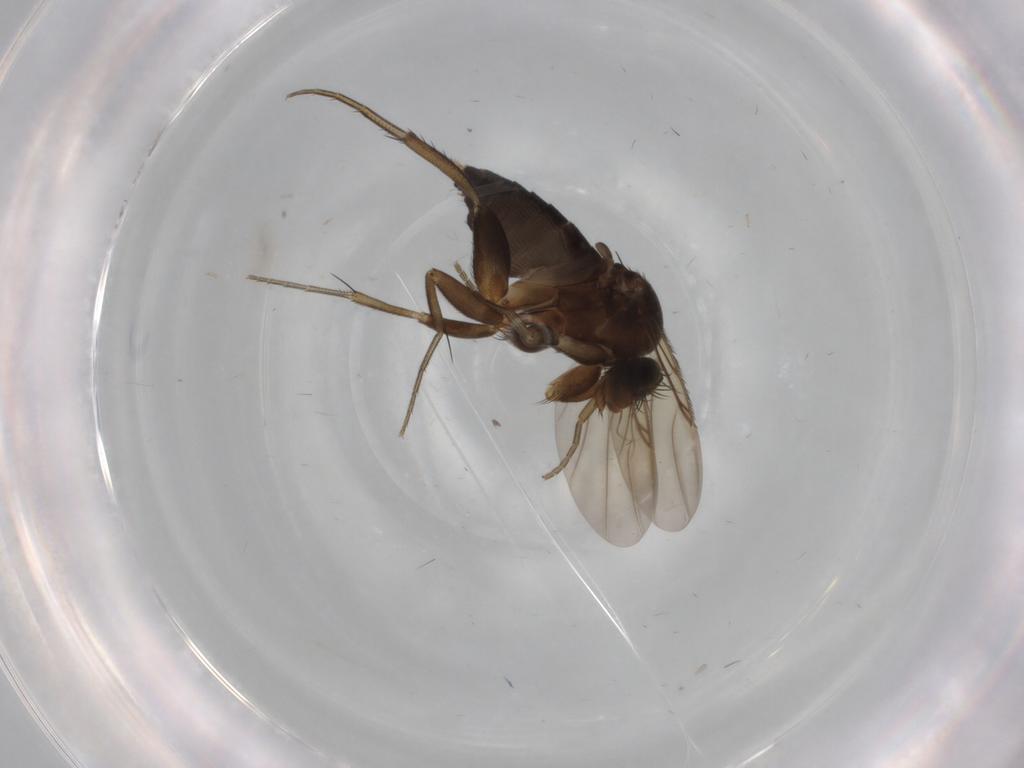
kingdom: Animalia
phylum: Arthropoda
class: Insecta
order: Diptera
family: Phoridae
